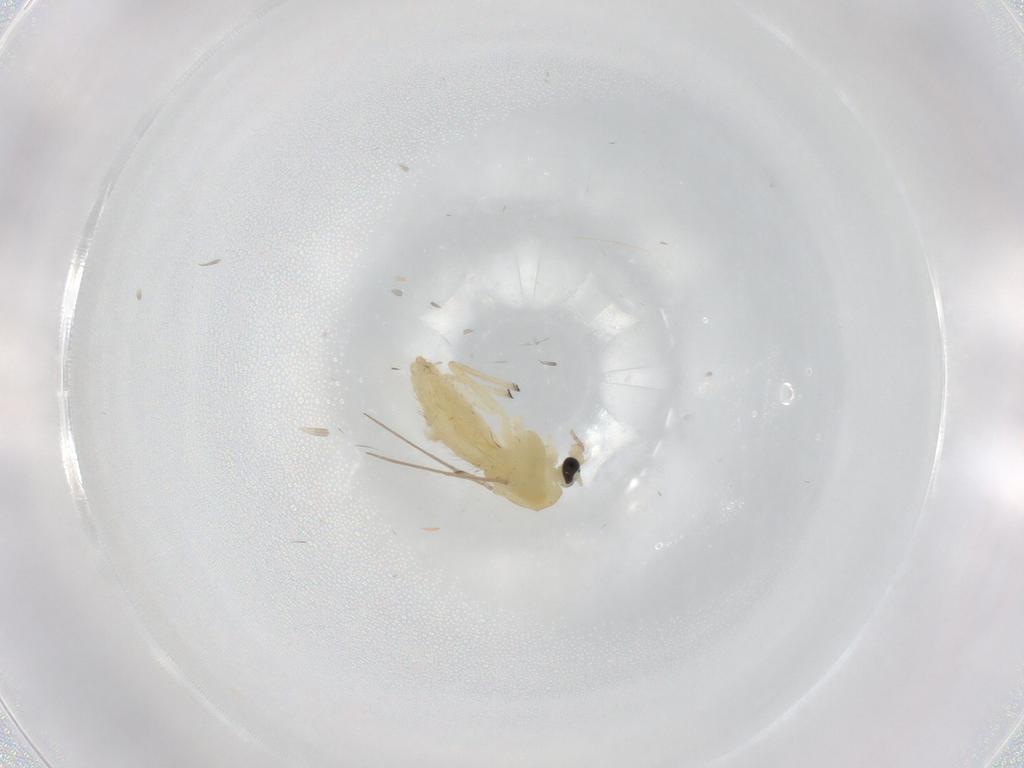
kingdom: Animalia
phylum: Arthropoda
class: Insecta
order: Diptera
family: Chironomidae
